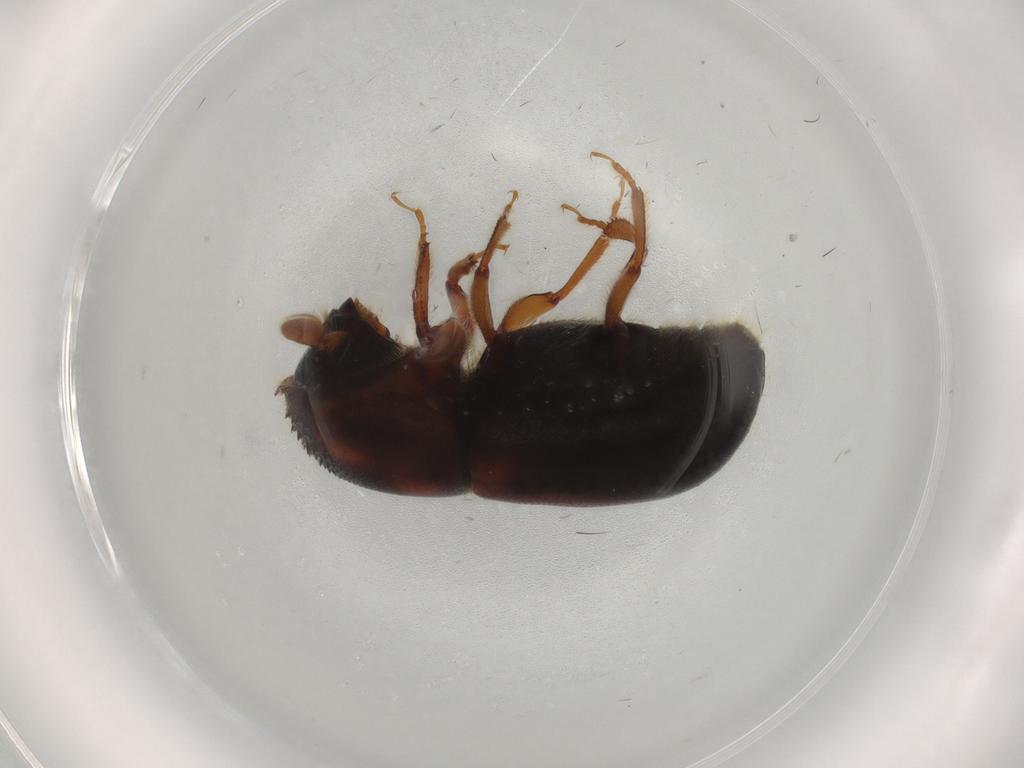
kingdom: Animalia
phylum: Arthropoda
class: Insecta
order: Coleoptera
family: Curculionidae
